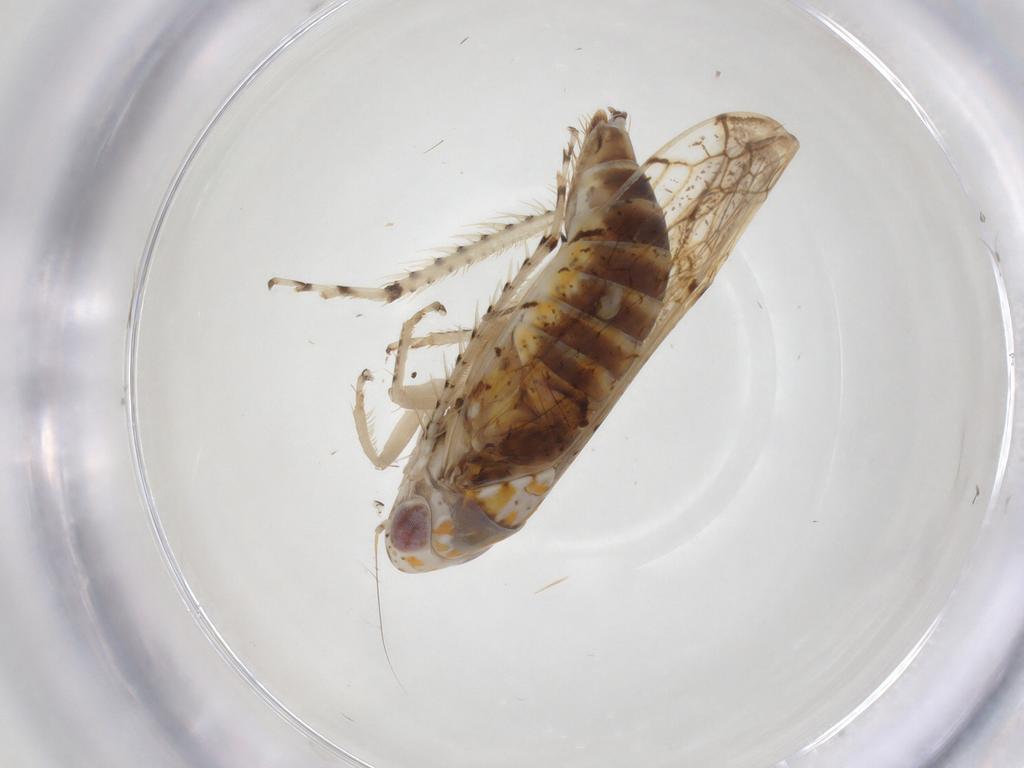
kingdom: Animalia
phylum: Arthropoda
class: Insecta
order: Hemiptera
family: Cicadellidae
